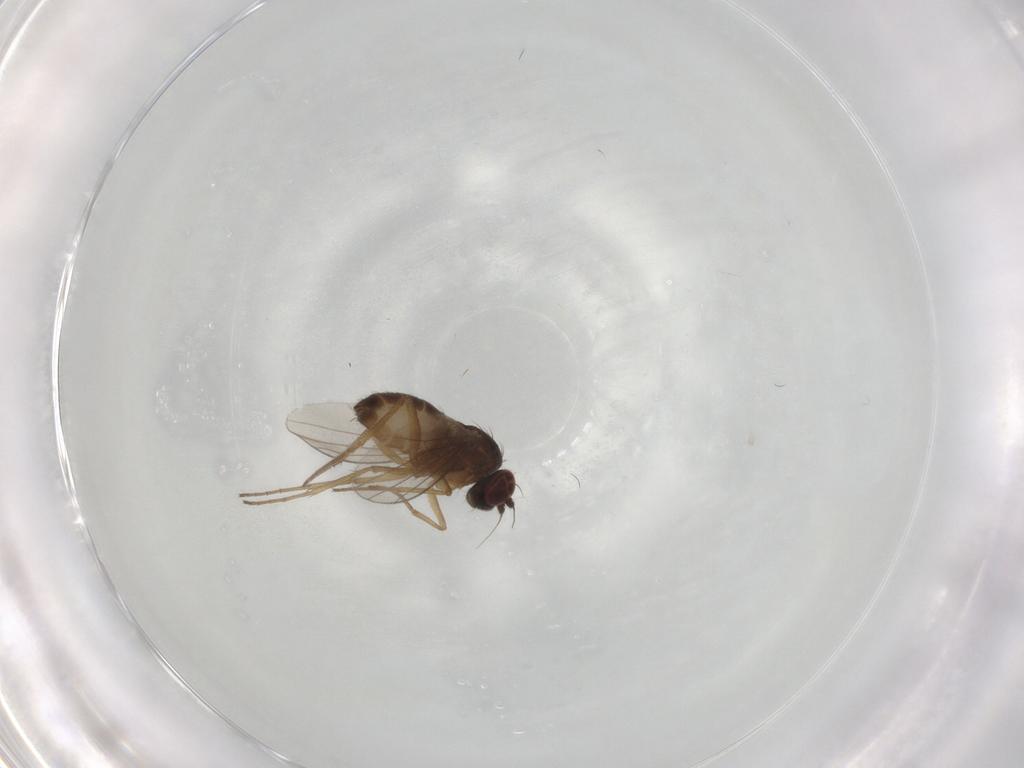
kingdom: Animalia
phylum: Arthropoda
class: Insecta
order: Diptera
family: Dolichopodidae
